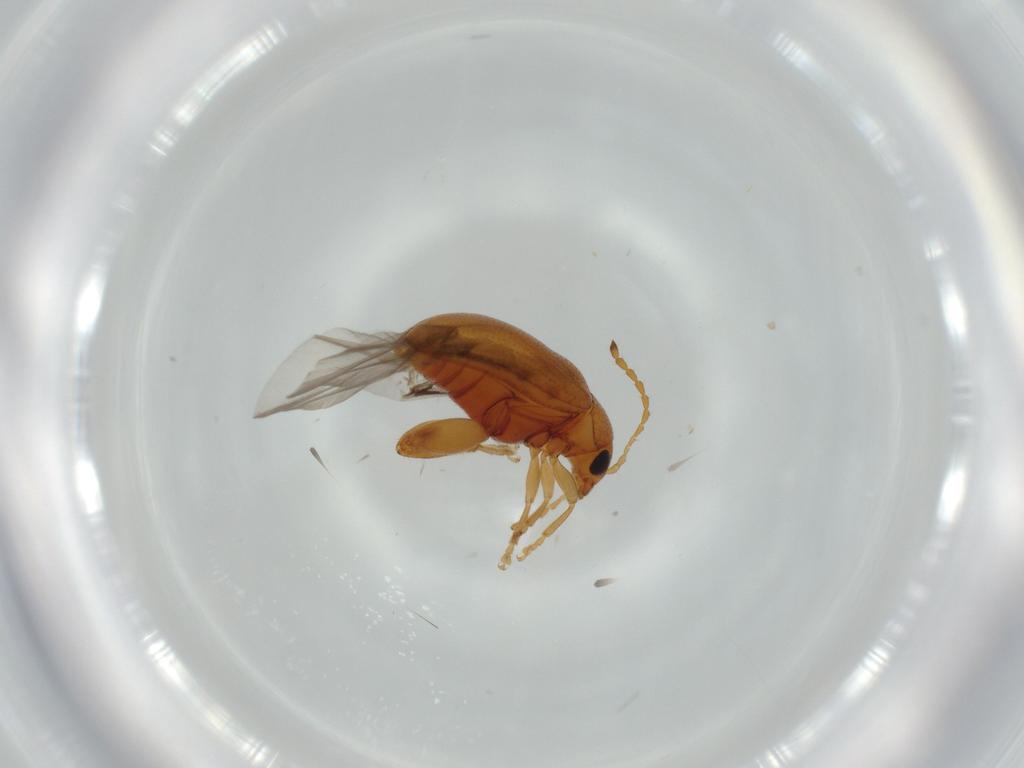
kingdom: Animalia
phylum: Arthropoda
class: Insecta
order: Coleoptera
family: Chrysomelidae
